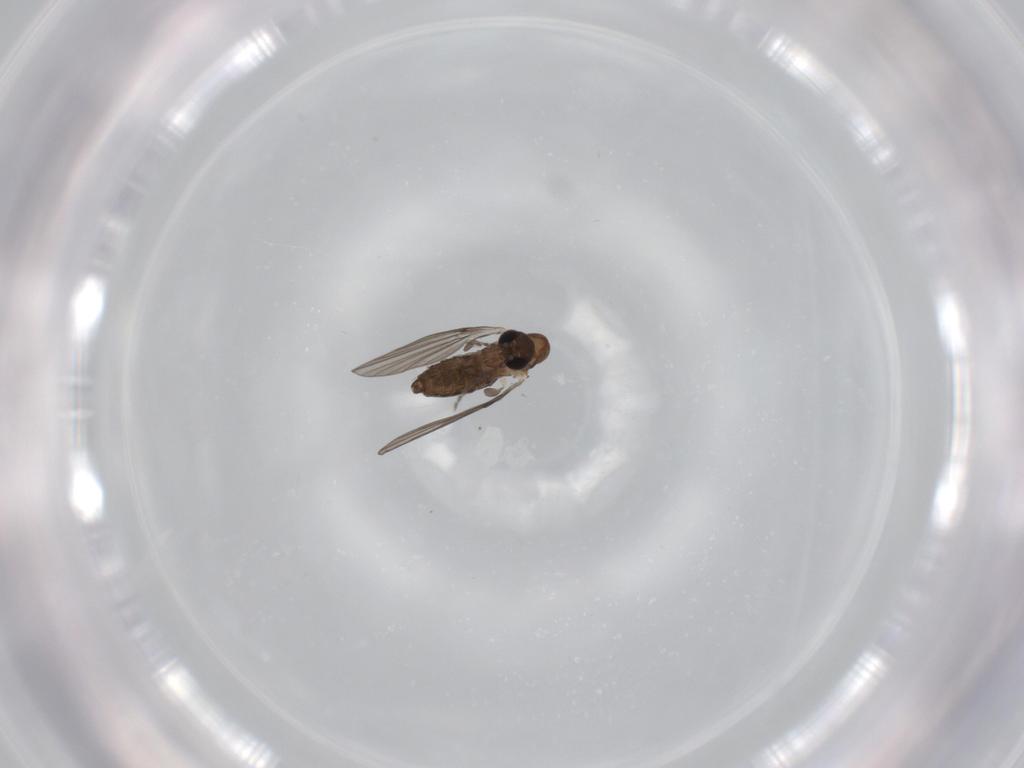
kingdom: Animalia
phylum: Arthropoda
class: Insecta
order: Diptera
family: Psychodidae
